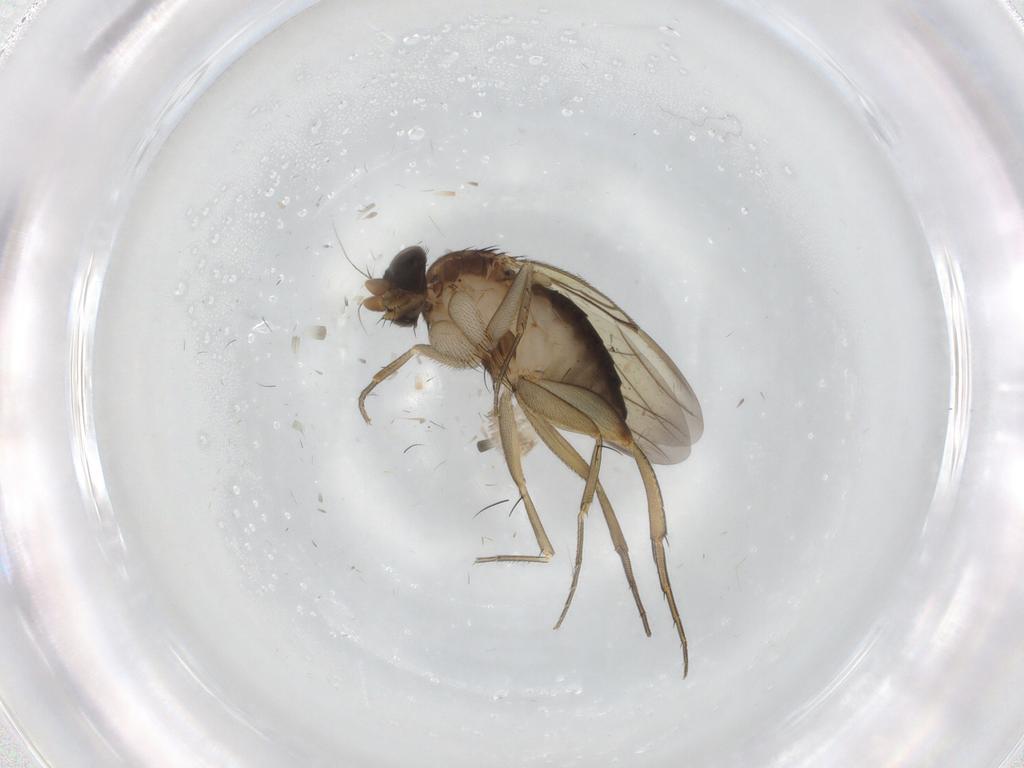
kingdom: Animalia
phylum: Arthropoda
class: Insecta
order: Diptera
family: Phoridae
